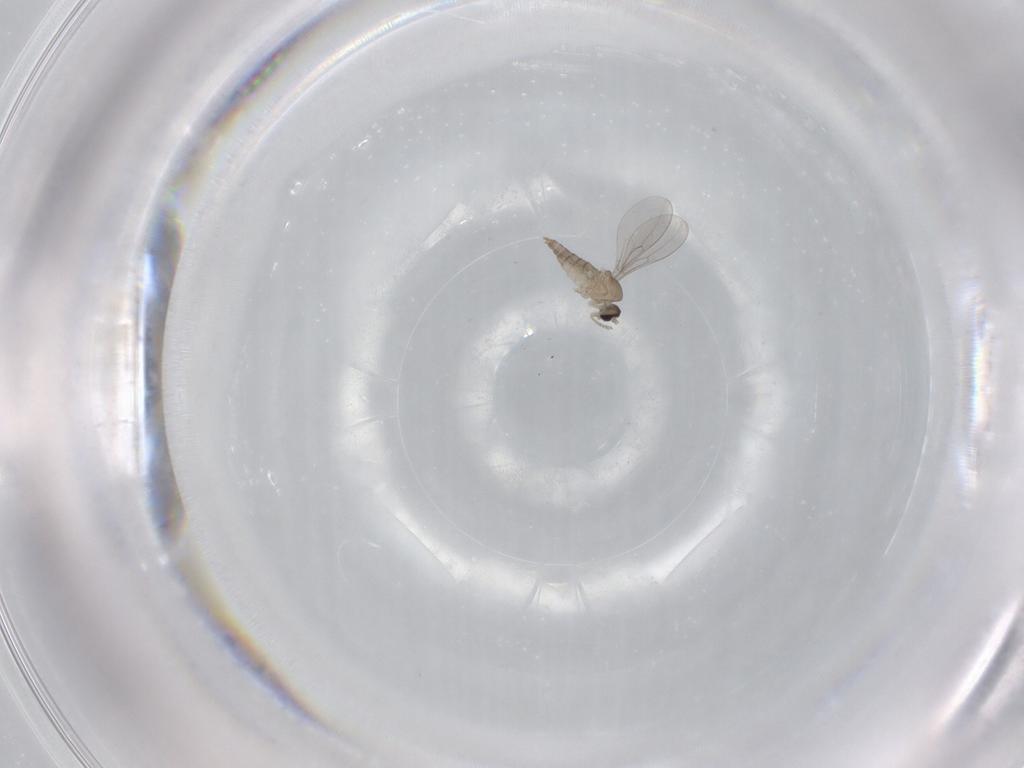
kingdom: Animalia
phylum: Arthropoda
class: Insecta
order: Diptera
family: Cecidomyiidae
